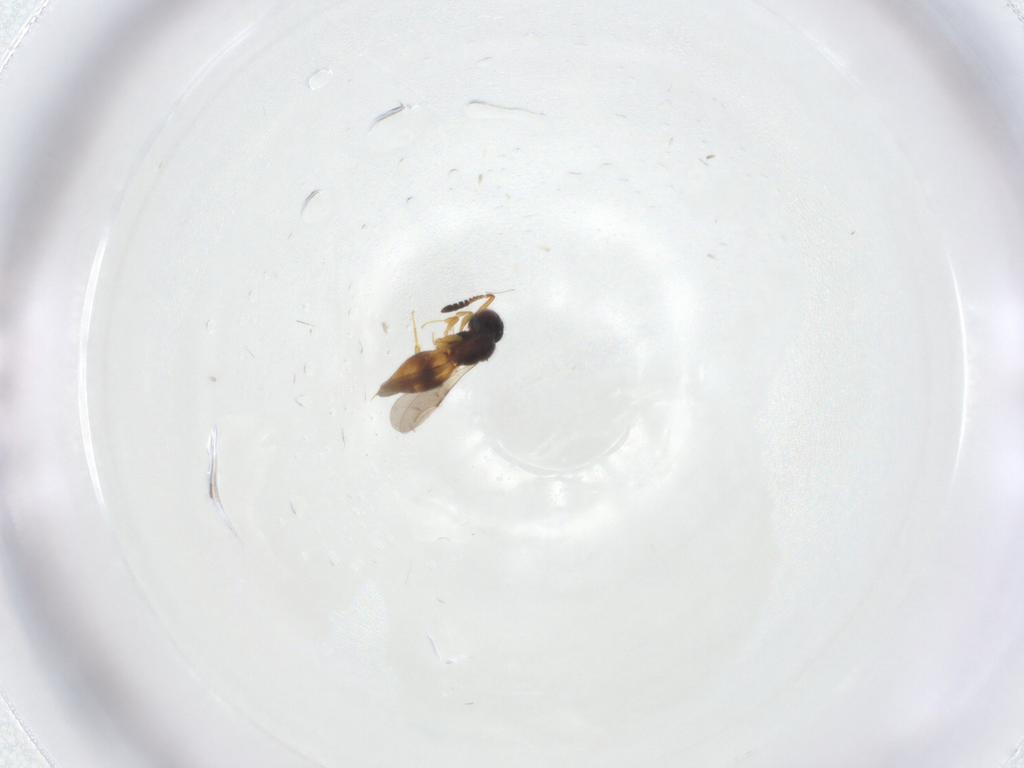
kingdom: Animalia
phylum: Arthropoda
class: Insecta
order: Hymenoptera
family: Ceraphronidae
